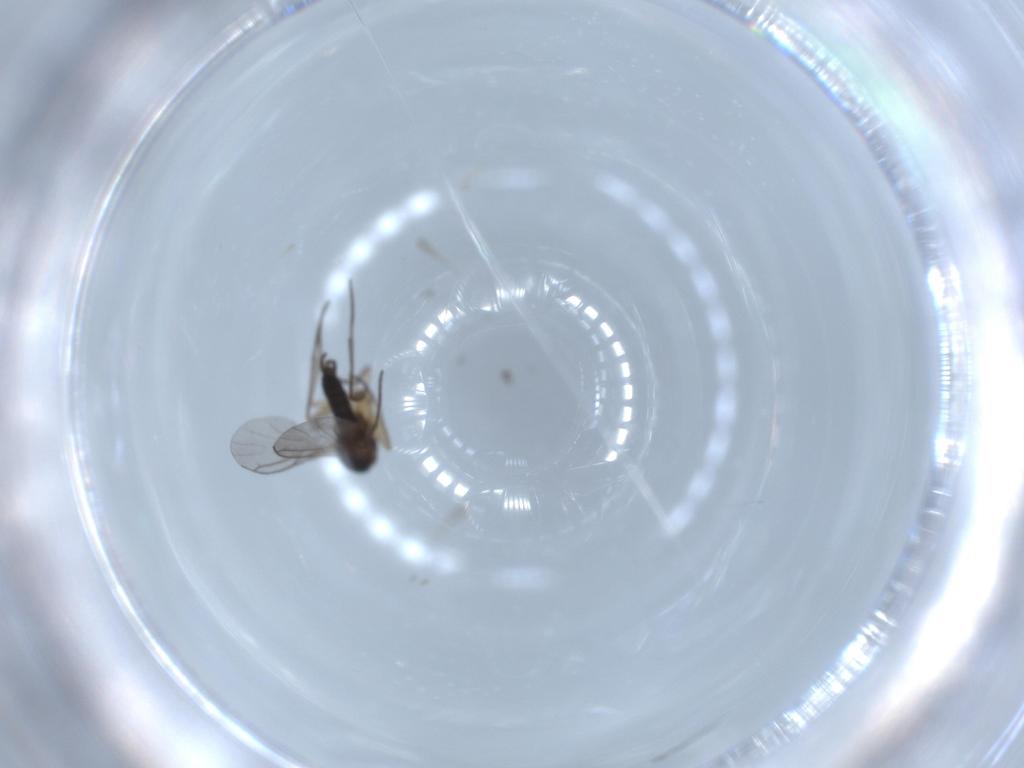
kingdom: Animalia
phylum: Arthropoda
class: Insecta
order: Diptera
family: Sciaridae
